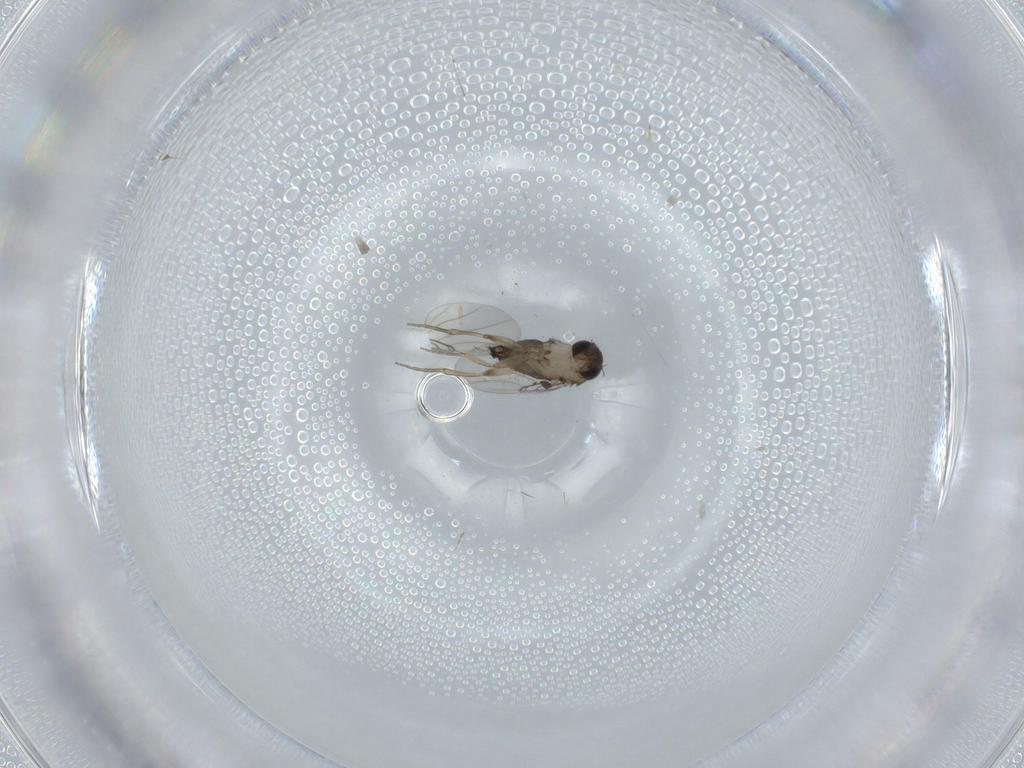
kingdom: Animalia
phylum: Arthropoda
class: Insecta
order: Diptera
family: Phoridae
